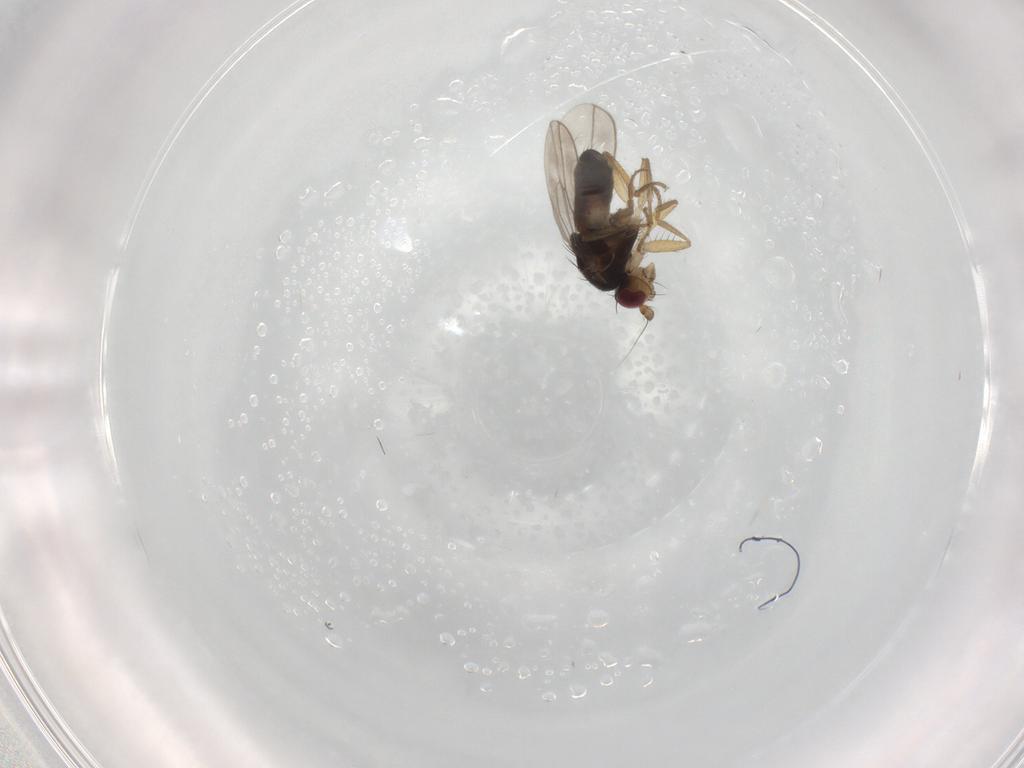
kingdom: Animalia
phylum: Arthropoda
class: Insecta
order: Diptera
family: Sphaeroceridae
